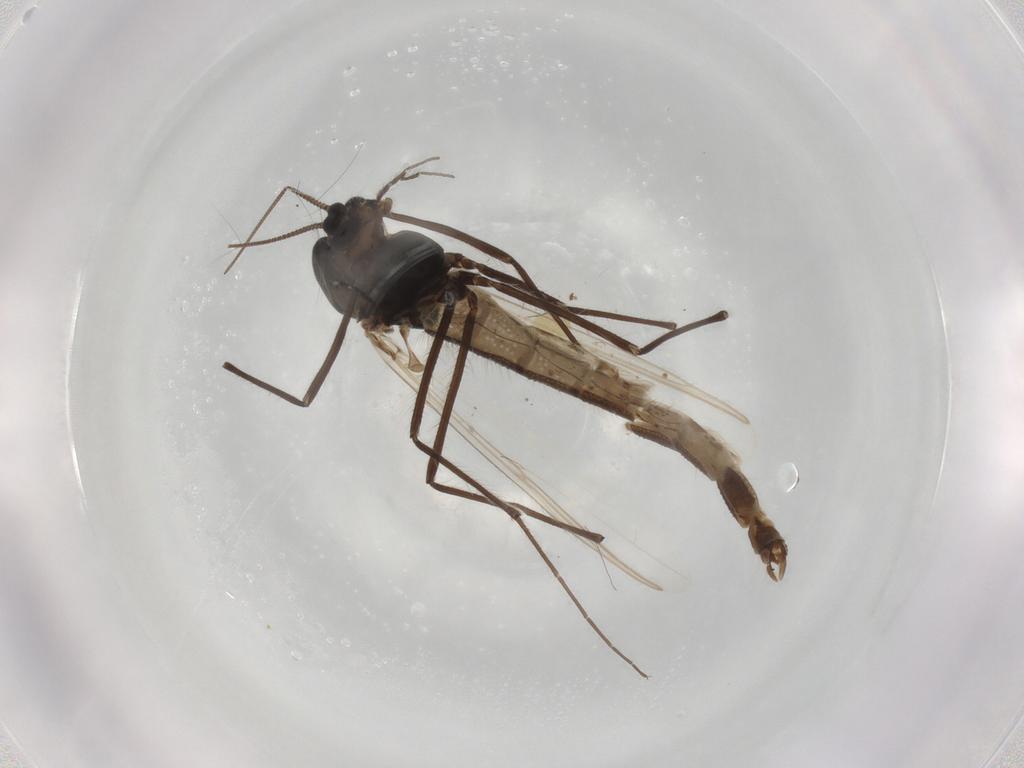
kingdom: Animalia
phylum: Arthropoda
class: Insecta
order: Diptera
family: Chironomidae
